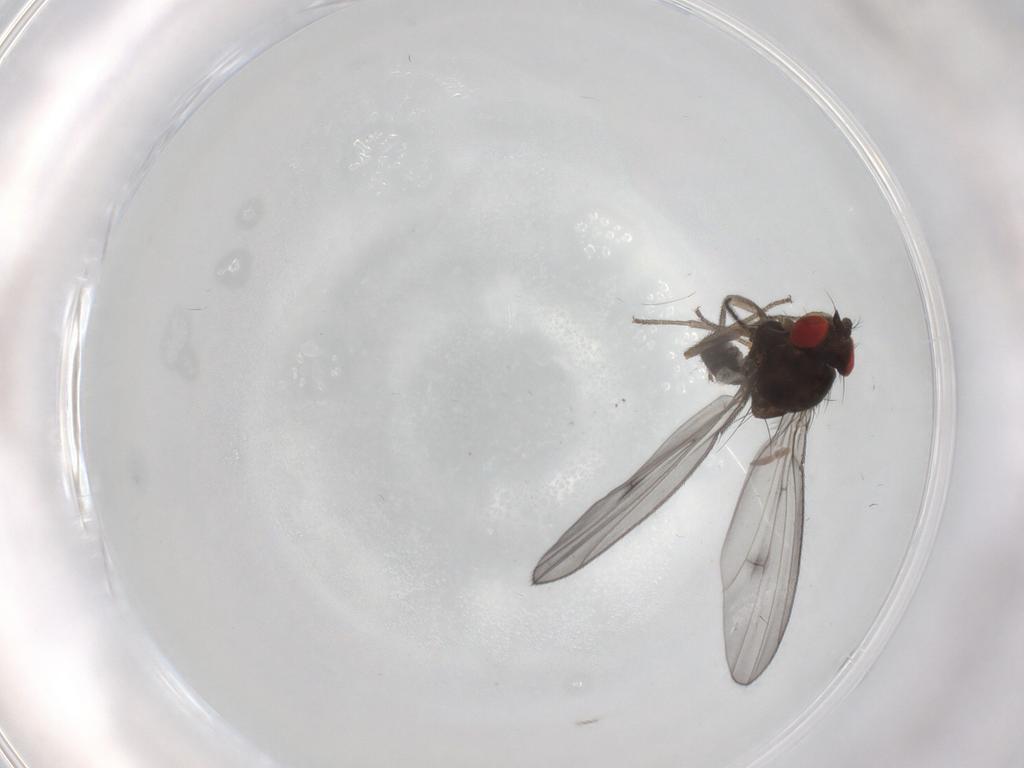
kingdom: Animalia
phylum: Arthropoda
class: Insecta
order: Diptera
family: Drosophilidae
